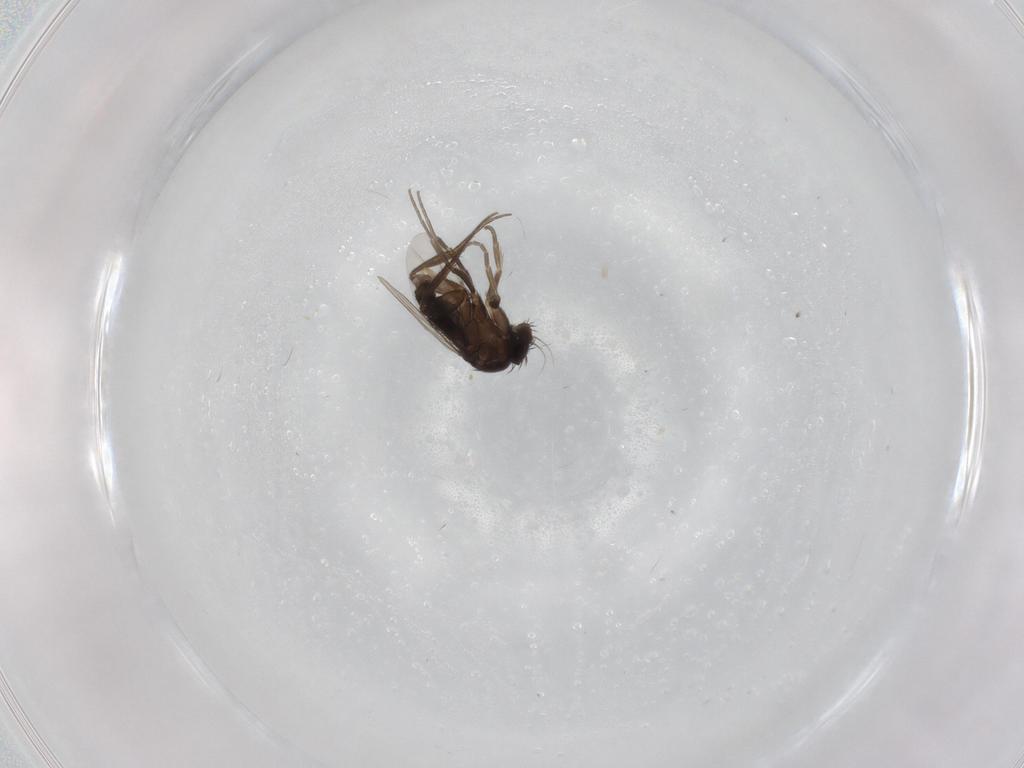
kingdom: Animalia
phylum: Arthropoda
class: Insecta
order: Diptera
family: Phoridae
